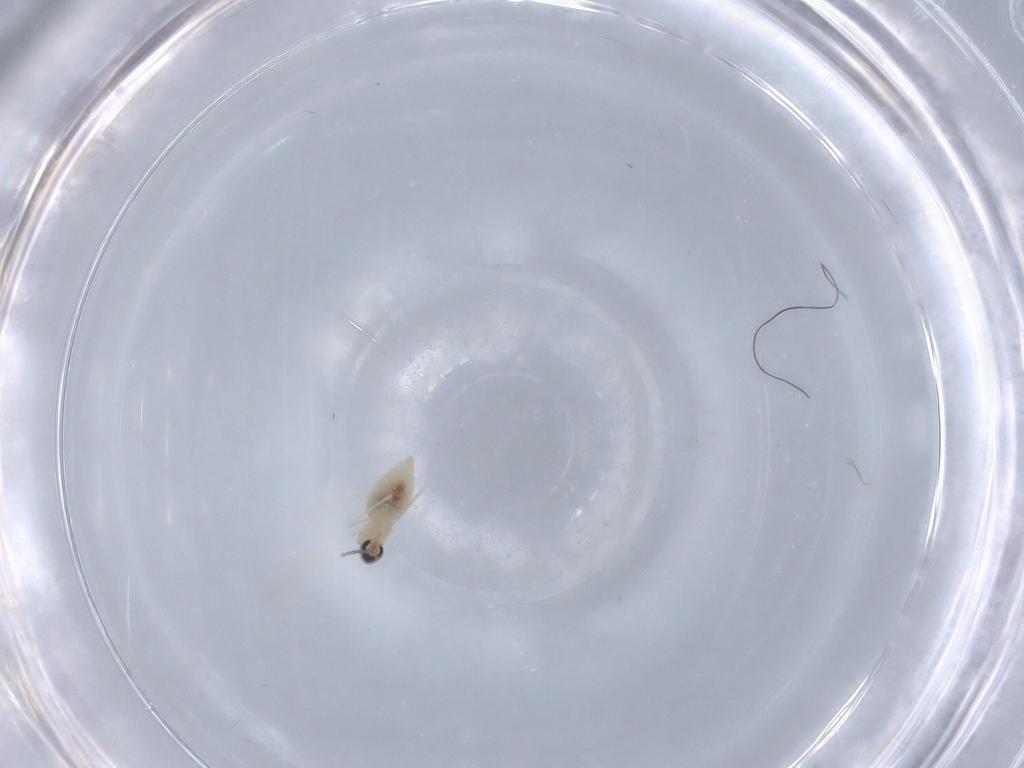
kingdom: Animalia
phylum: Arthropoda
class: Insecta
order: Diptera
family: Cecidomyiidae
